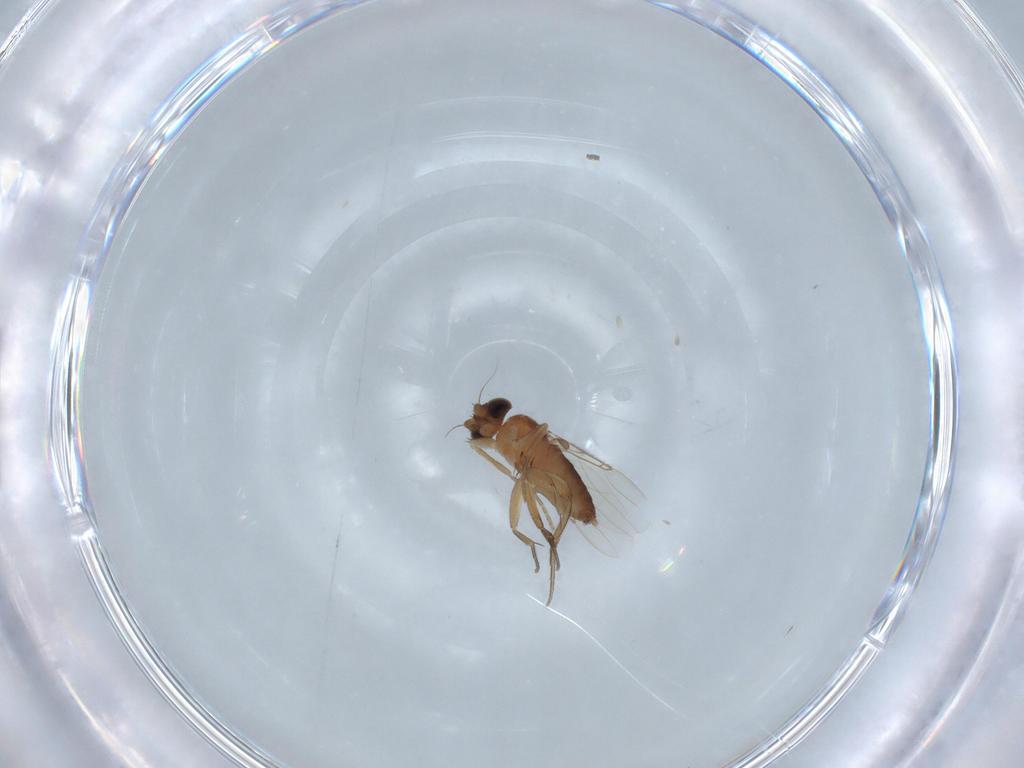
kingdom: Animalia
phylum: Arthropoda
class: Insecta
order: Diptera
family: Phoridae
